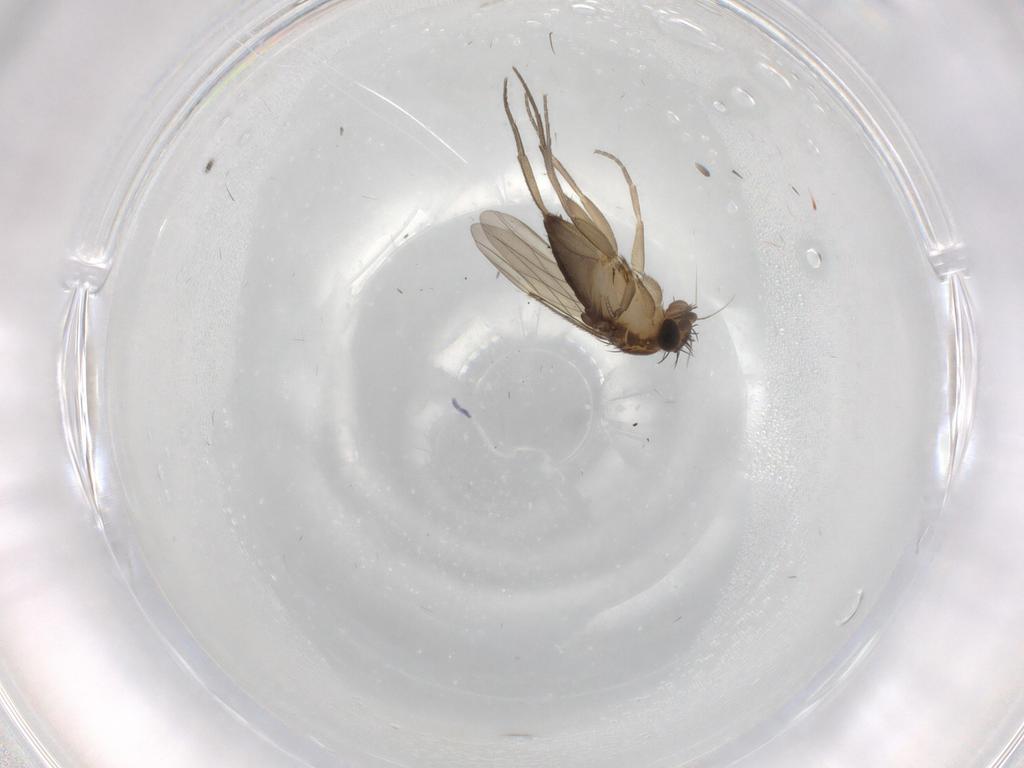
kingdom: Animalia
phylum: Arthropoda
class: Insecta
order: Diptera
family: Phoridae
